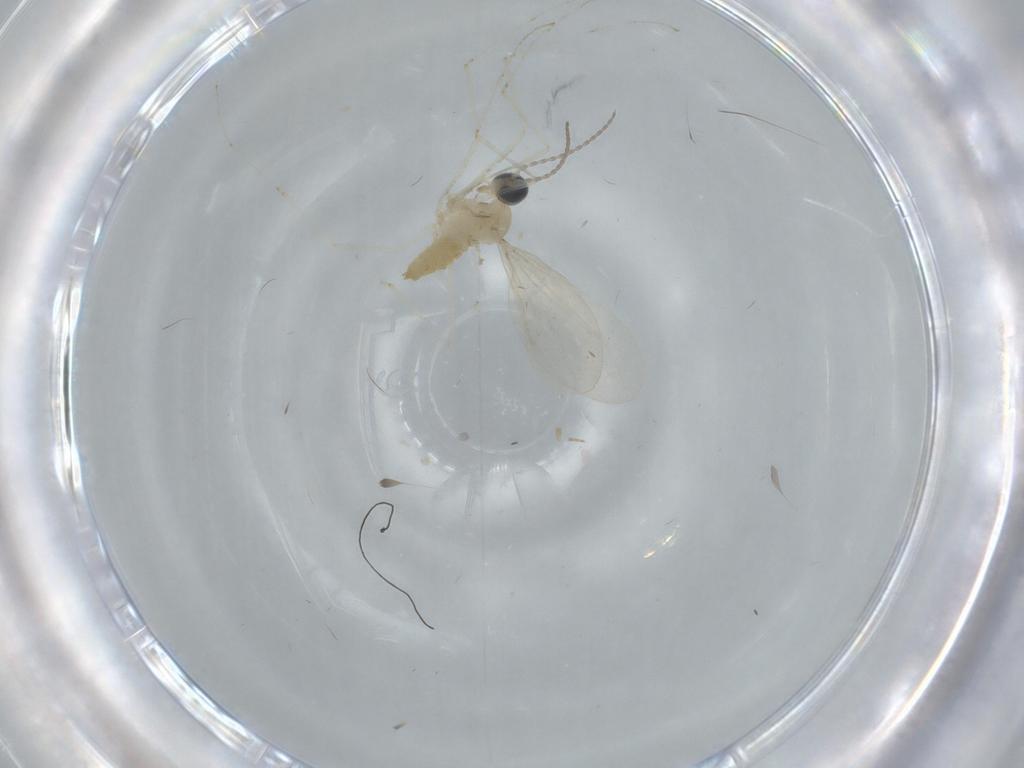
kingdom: Animalia
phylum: Arthropoda
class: Insecta
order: Diptera
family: Cecidomyiidae
